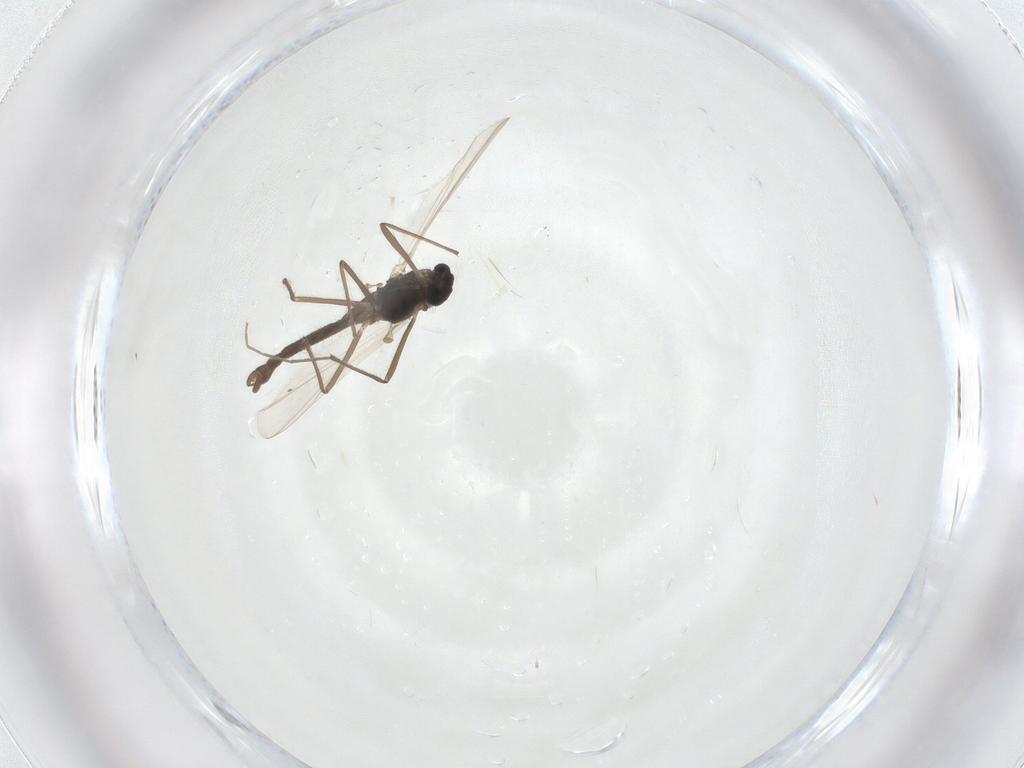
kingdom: Animalia
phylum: Arthropoda
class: Insecta
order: Diptera
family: Chironomidae
